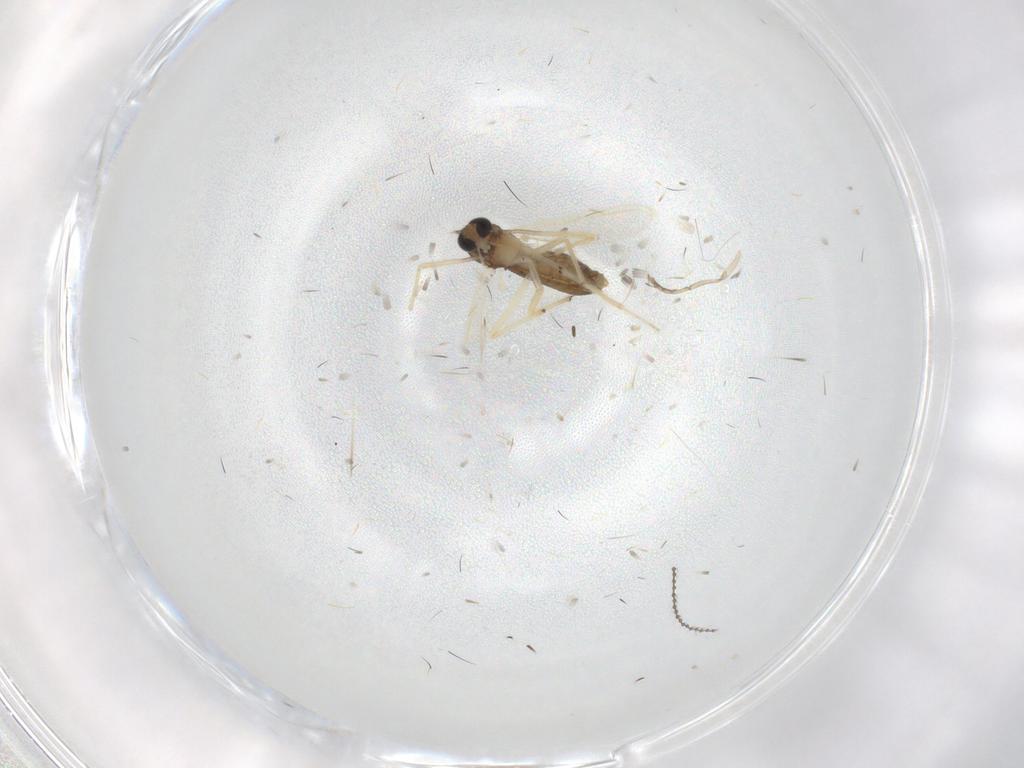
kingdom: Animalia
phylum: Arthropoda
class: Insecta
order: Diptera
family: Chironomidae
